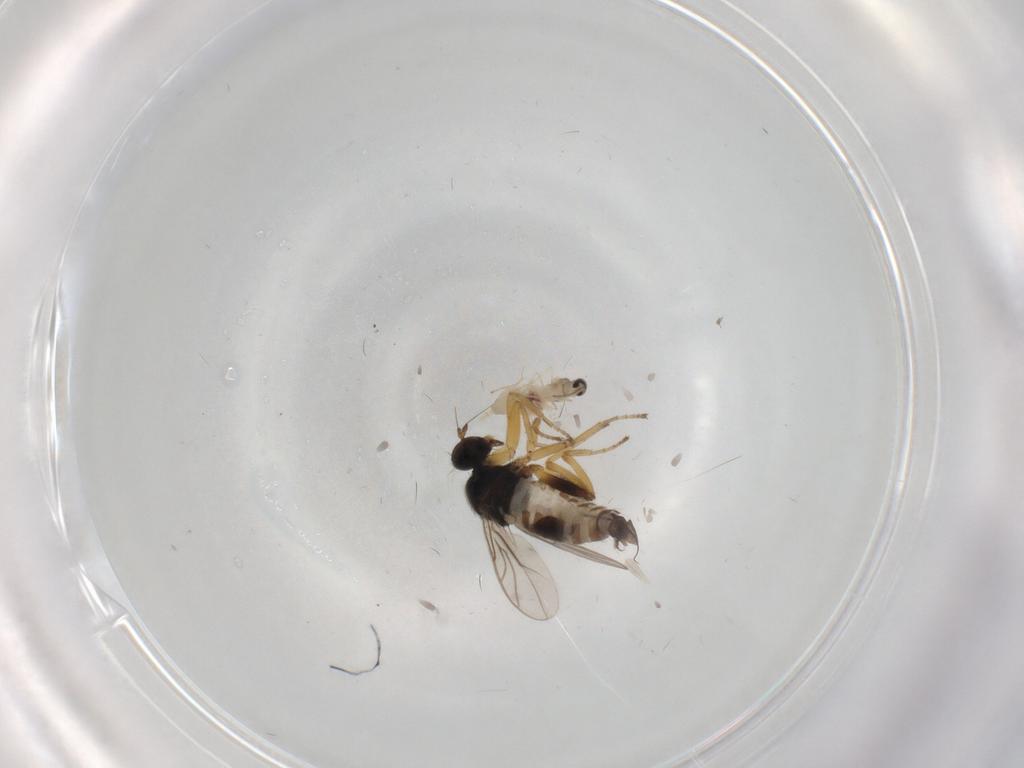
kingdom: Animalia
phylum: Arthropoda
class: Insecta
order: Diptera
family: Hybotidae
